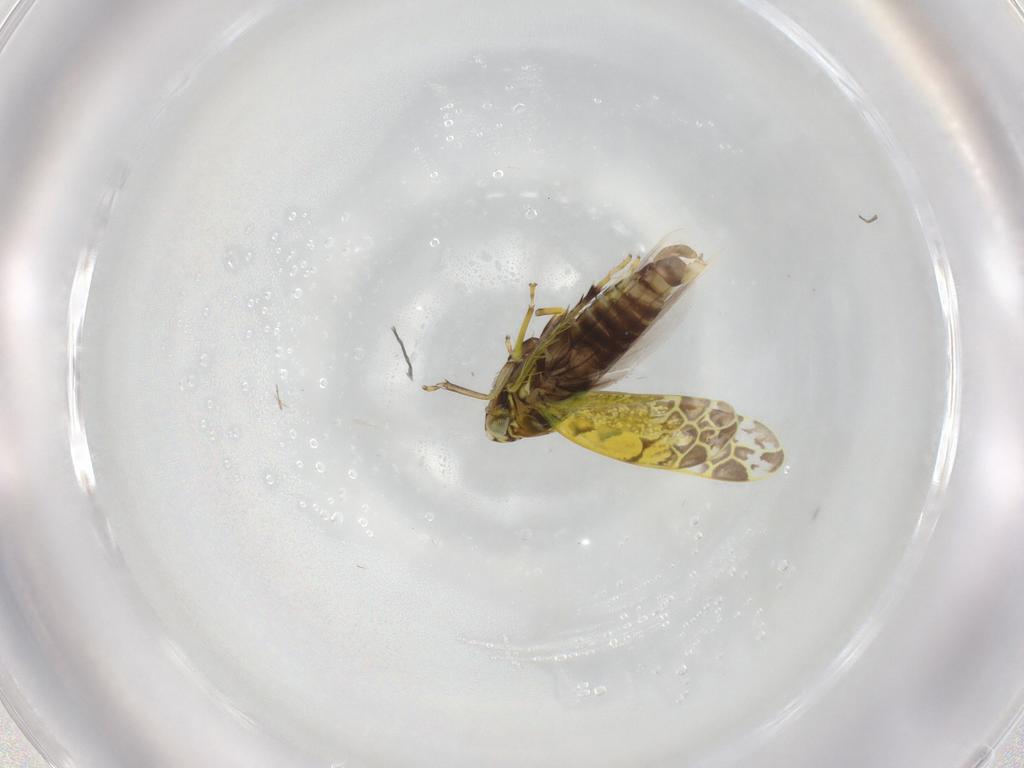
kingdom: Animalia
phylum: Arthropoda
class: Insecta
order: Hemiptera
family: Cicadellidae
